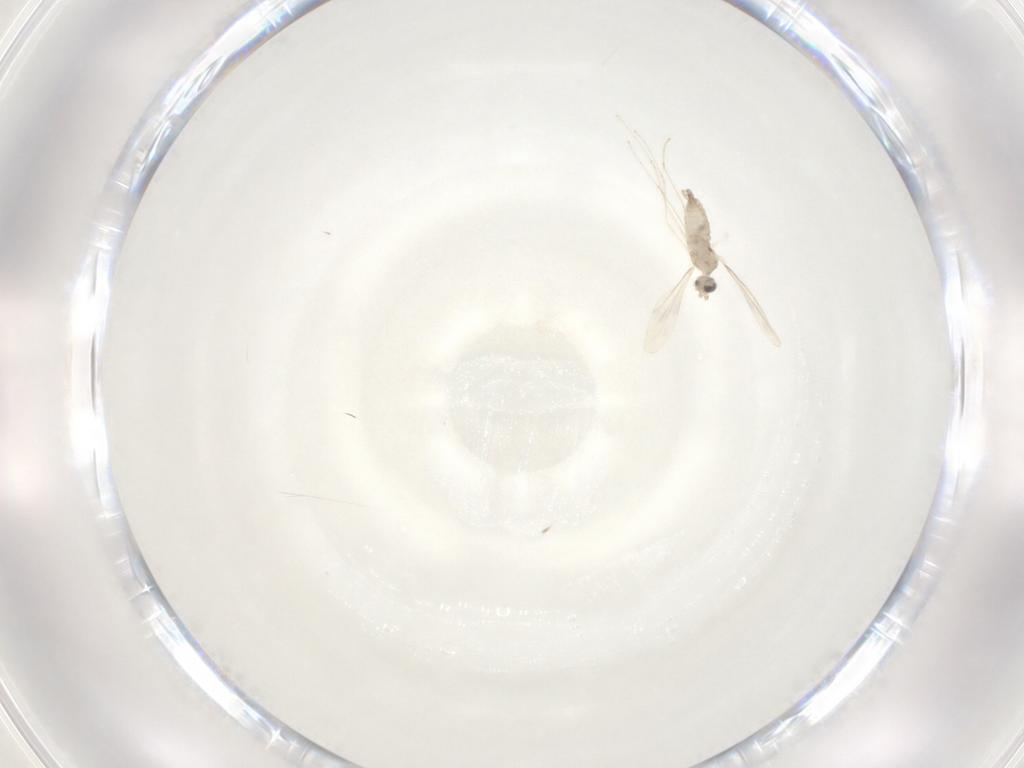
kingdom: Animalia
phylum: Arthropoda
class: Insecta
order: Diptera
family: Cecidomyiidae
